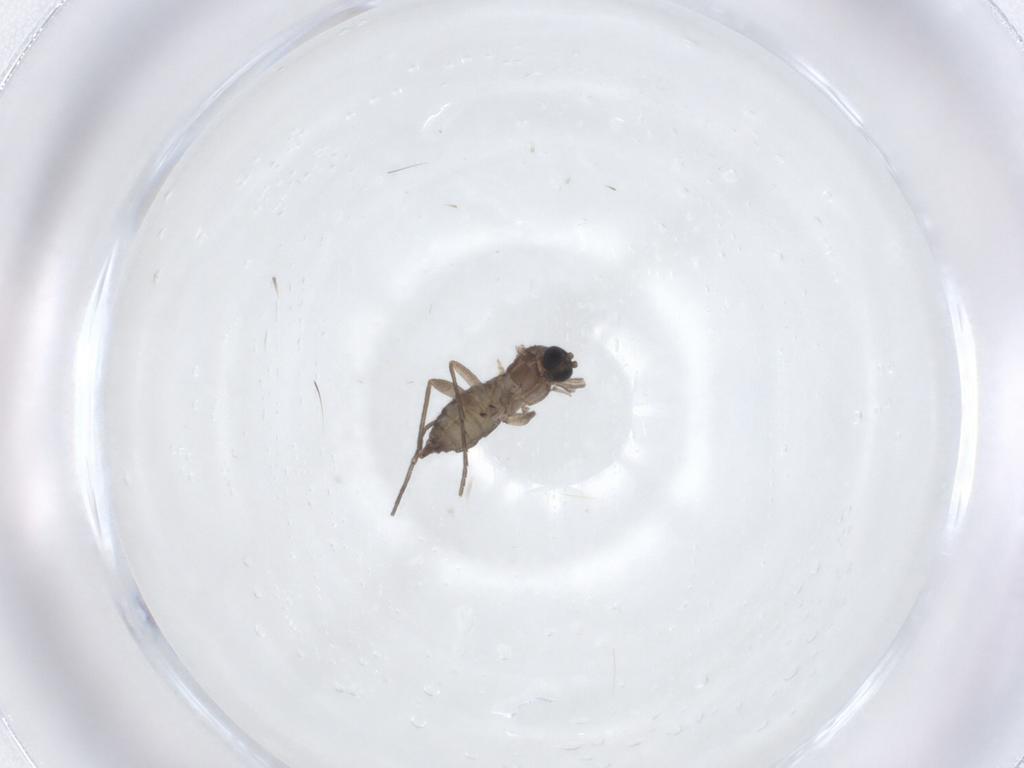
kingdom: Animalia
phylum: Arthropoda
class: Insecta
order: Diptera
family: Sciaridae
